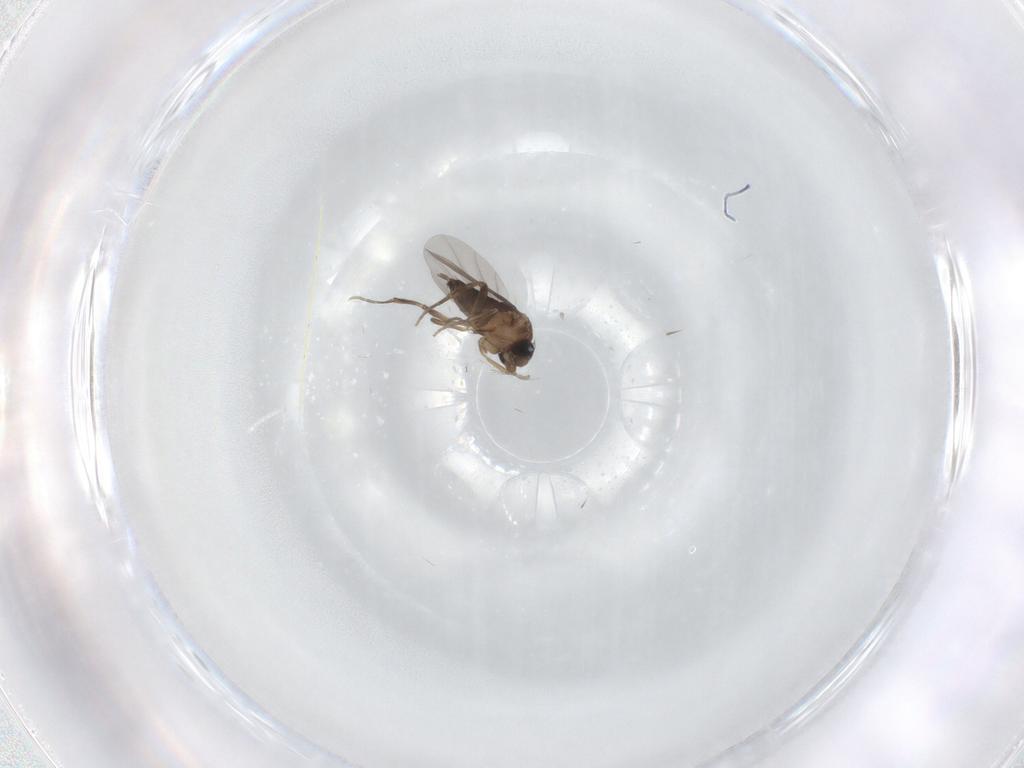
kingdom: Animalia
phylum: Arthropoda
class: Insecta
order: Diptera
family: Phoridae
